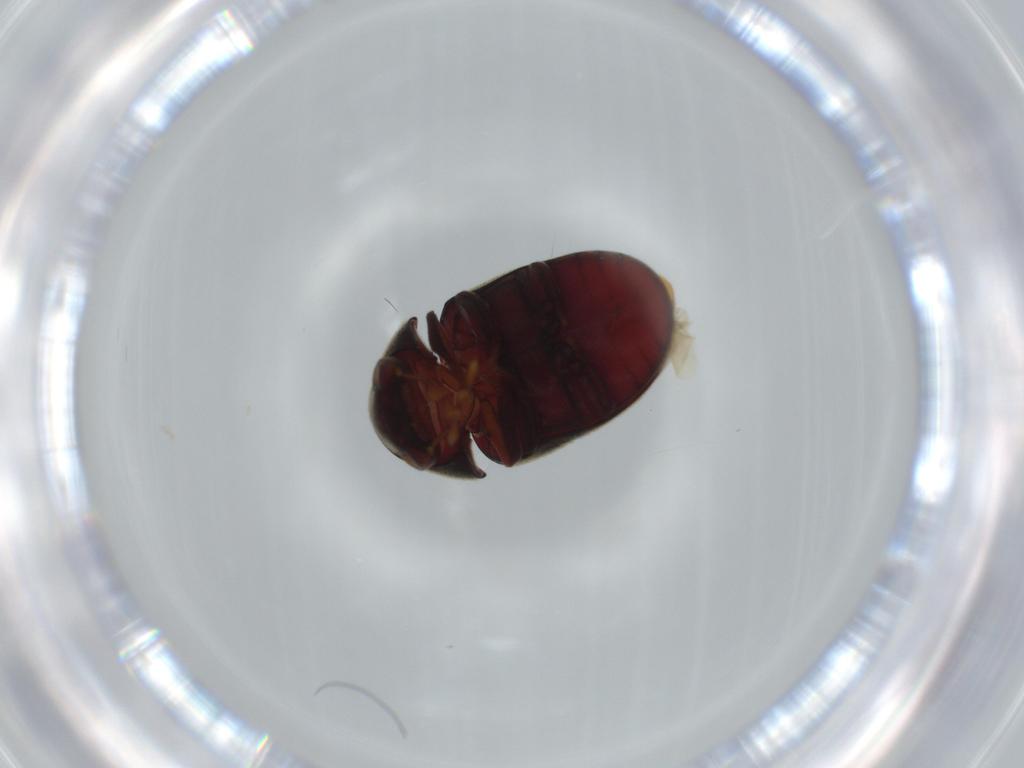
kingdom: Animalia
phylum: Arthropoda
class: Insecta
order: Coleoptera
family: Ptinidae
